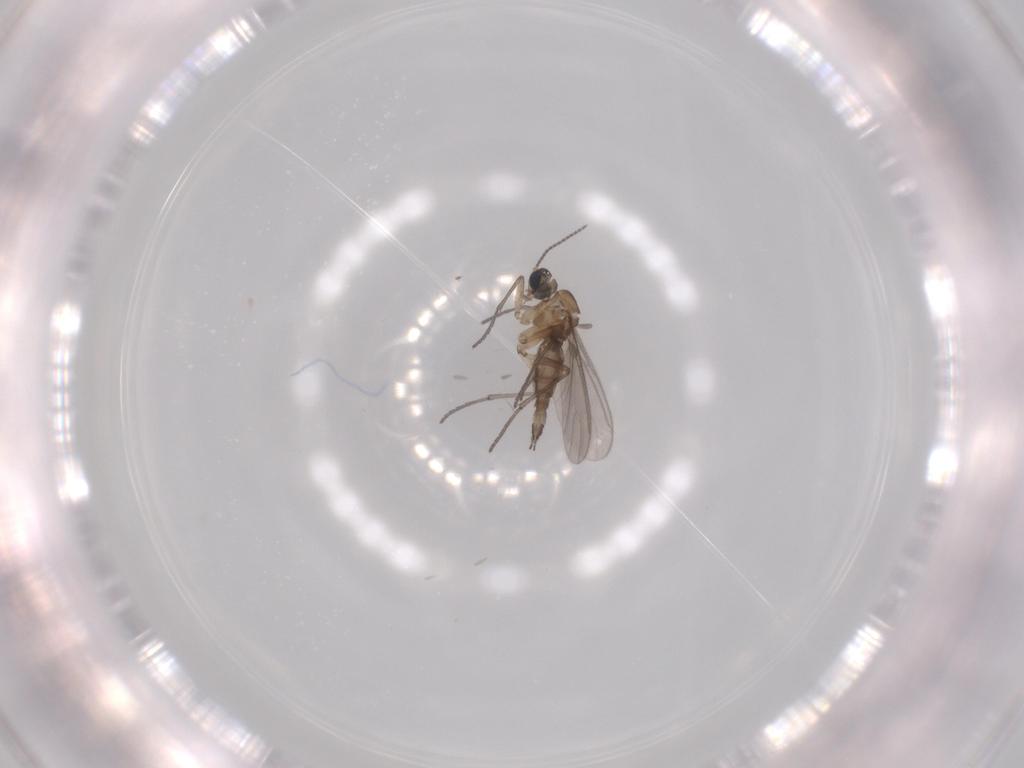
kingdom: Animalia
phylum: Arthropoda
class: Insecta
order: Diptera
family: Sciaridae
